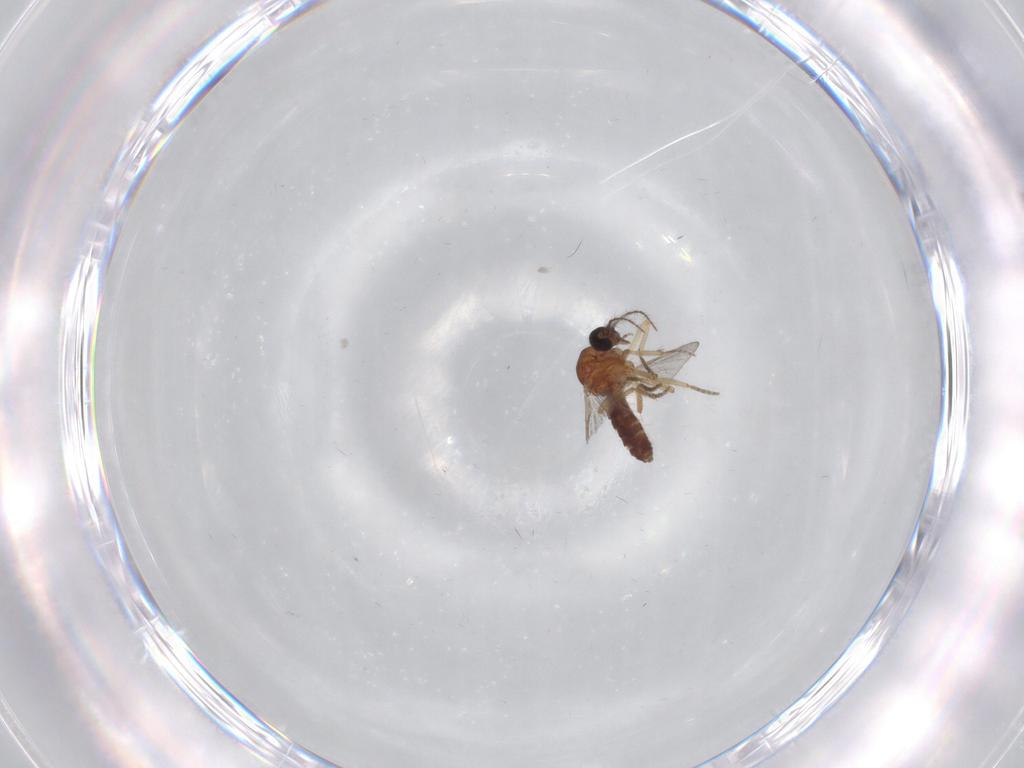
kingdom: Animalia
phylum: Arthropoda
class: Insecta
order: Diptera
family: Ceratopogonidae
